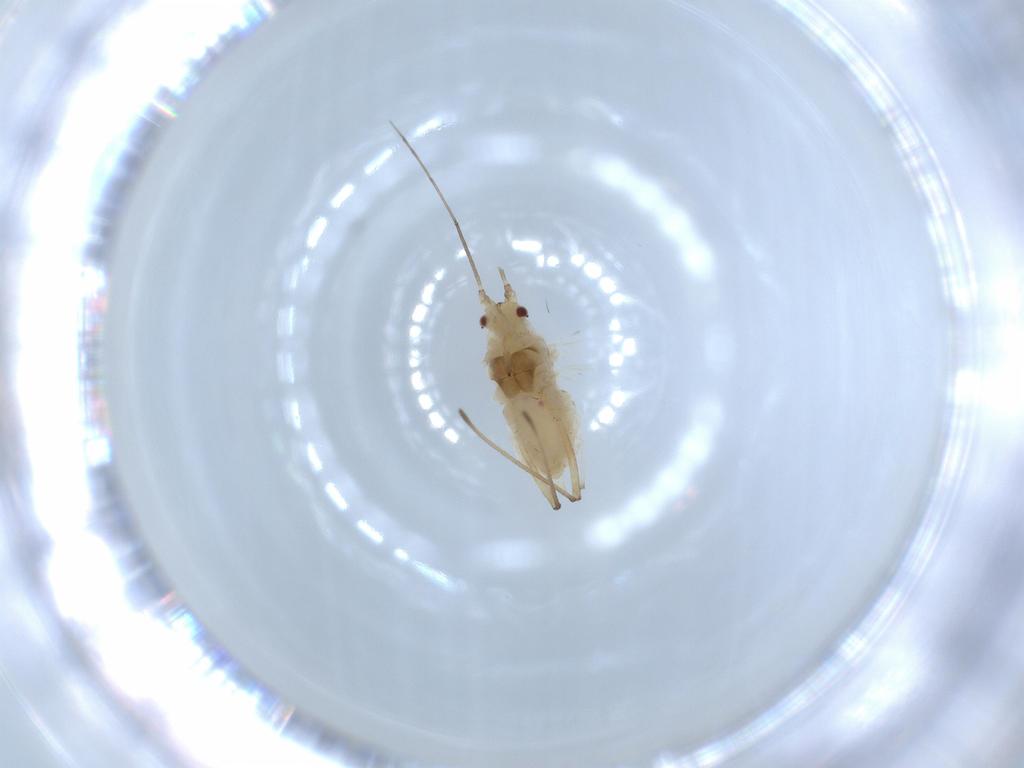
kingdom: Animalia
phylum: Arthropoda
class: Insecta
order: Hemiptera
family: Aphididae
